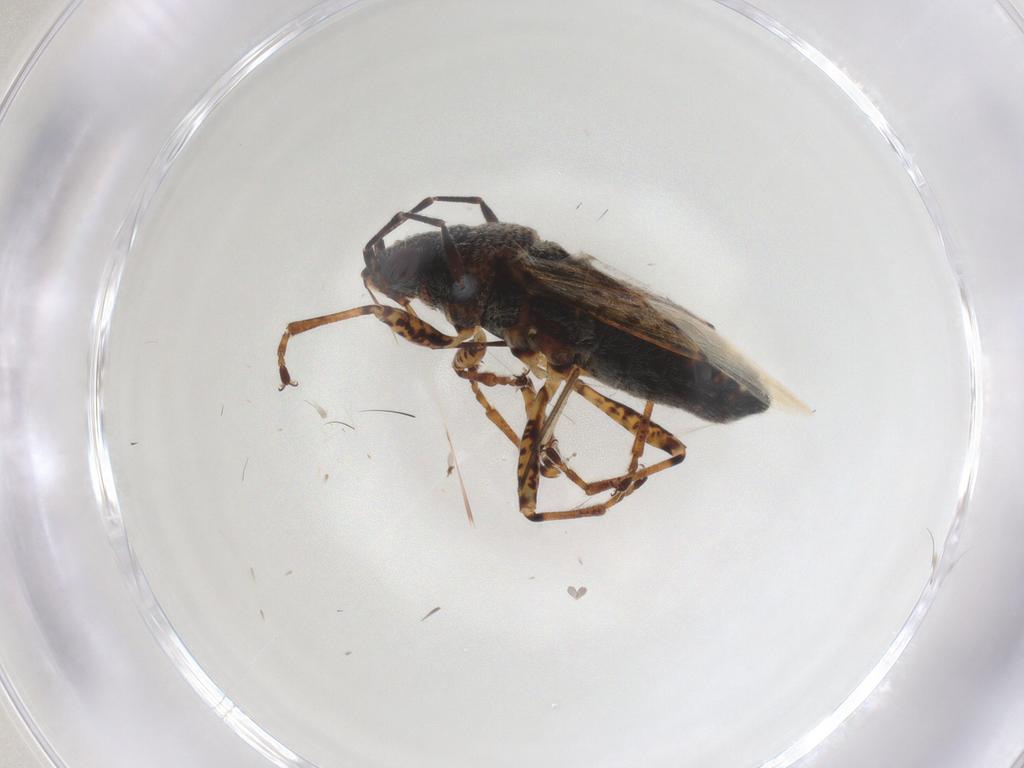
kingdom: Animalia
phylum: Arthropoda
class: Insecta
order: Hemiptera
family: Lygaeidae
